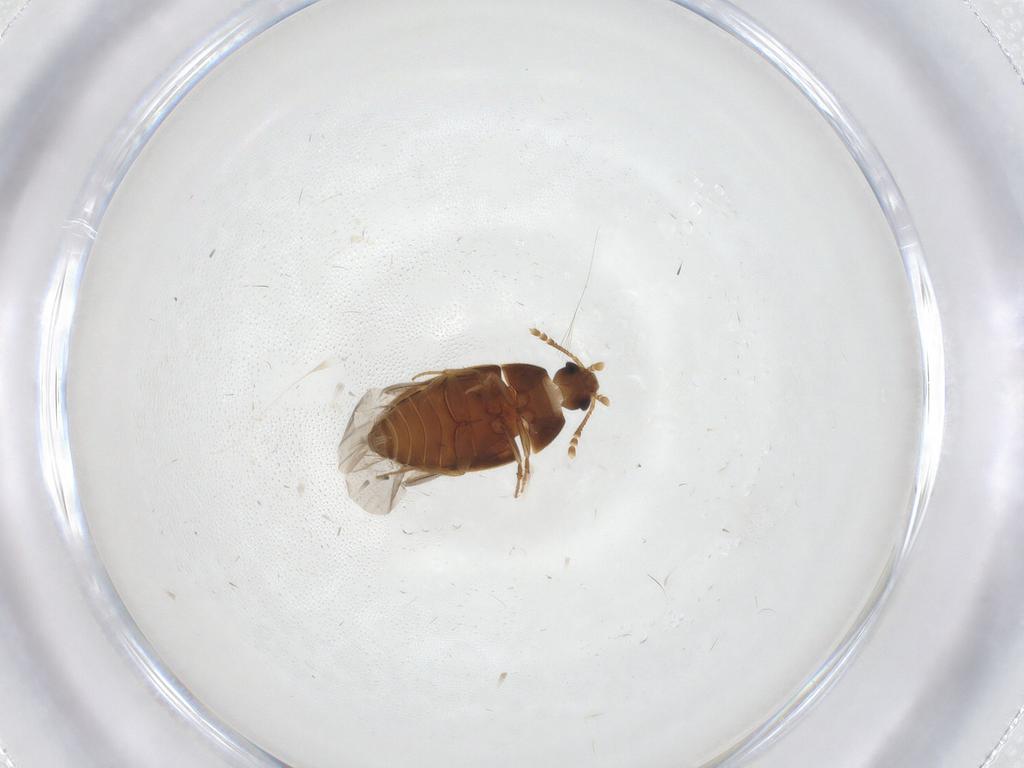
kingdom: Animalia
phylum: Arthropoda
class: Insecta
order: Coleoptera
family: Mycetophagidae
